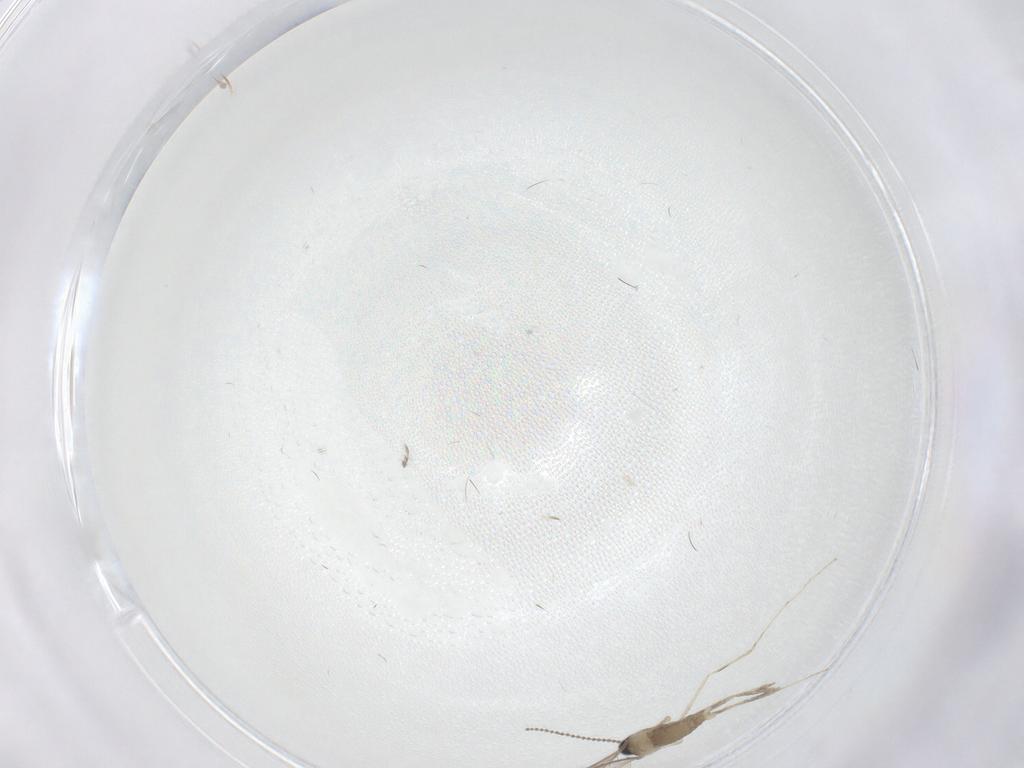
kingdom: Animalia
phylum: Arthropoda
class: Insecta
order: Diptera
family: Cecidomyiidae
